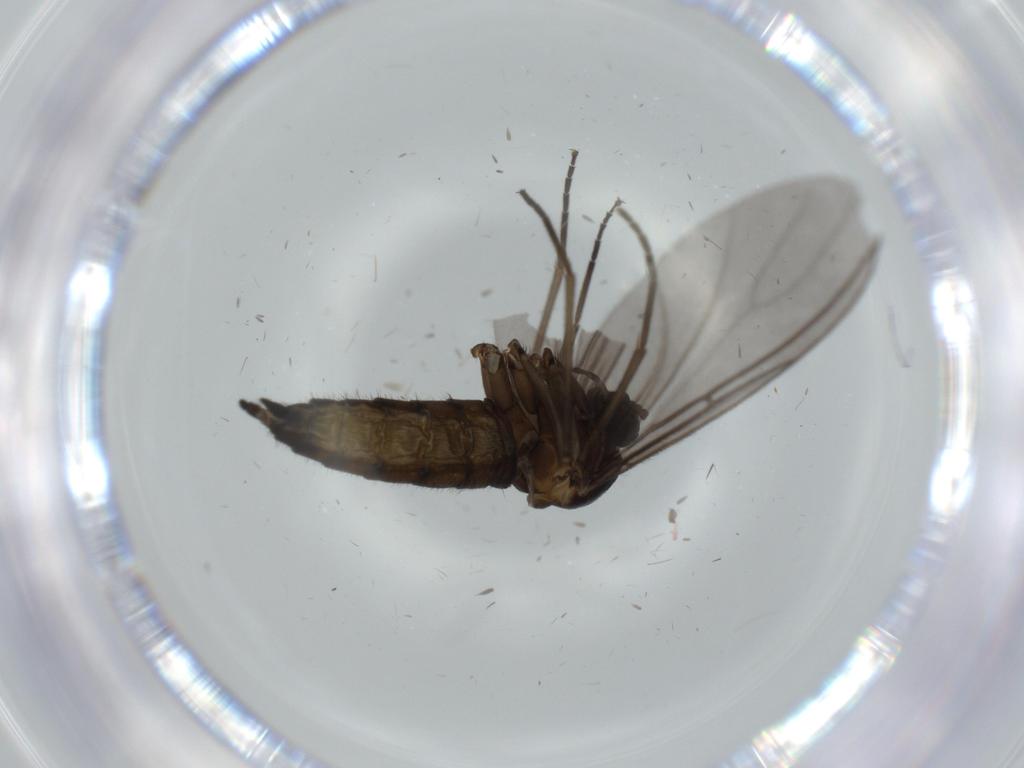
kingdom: Animalia
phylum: Arthropoda
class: Insecta
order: Diptera
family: Sciaridae
